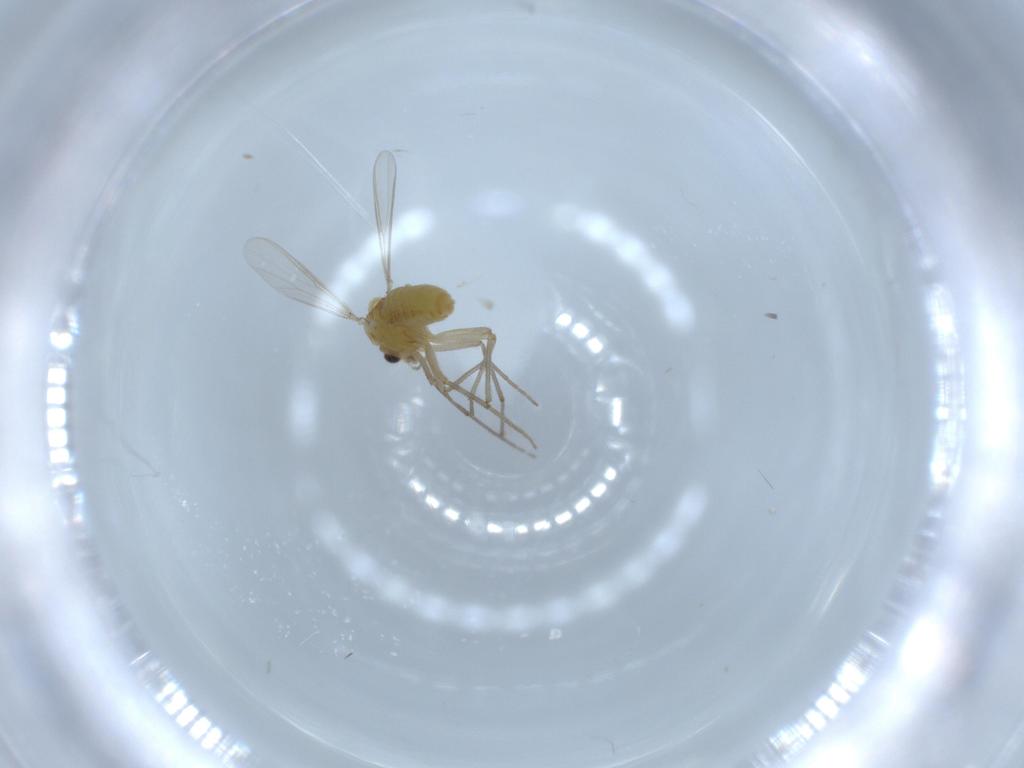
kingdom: Animalia
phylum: Arthropoda
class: Insecta
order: Diptera
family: Chironomidae
